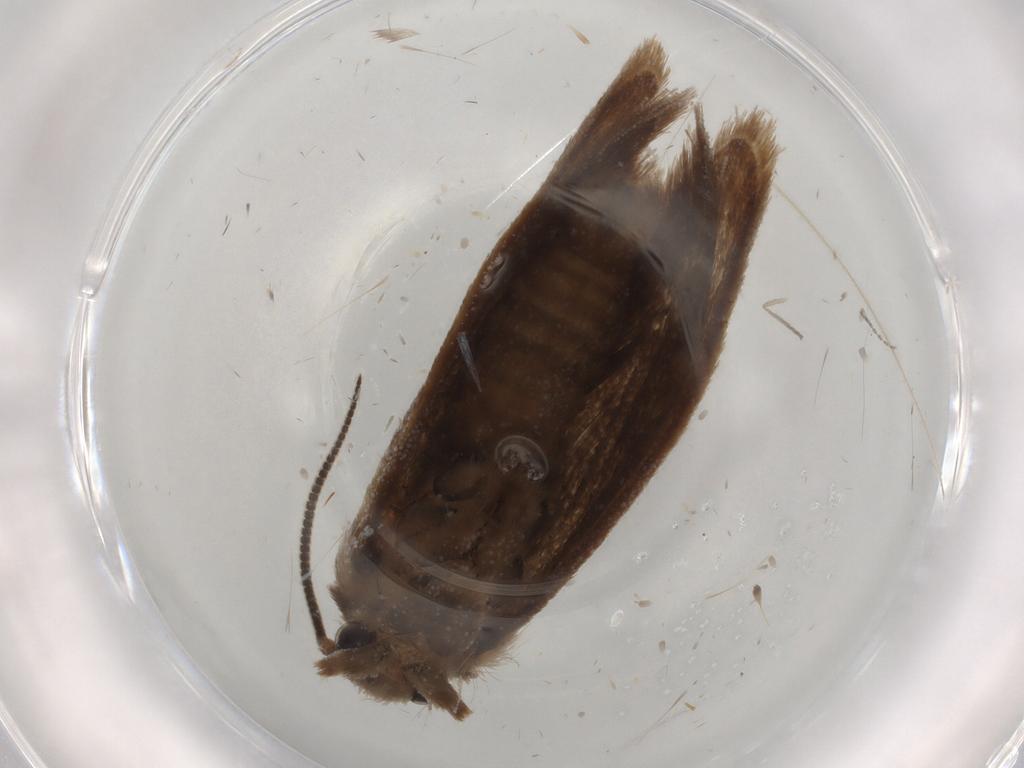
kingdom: Animalia
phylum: Arthropoda
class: Insecta
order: Lepidoptera
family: Tineidae
